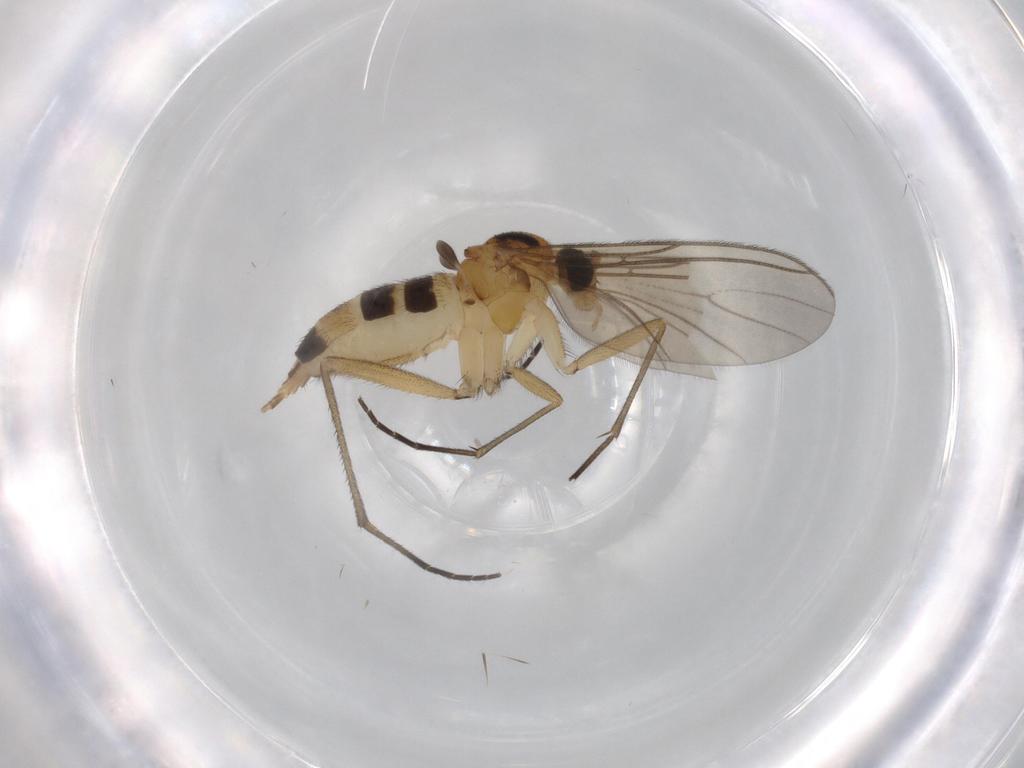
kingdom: Animalia
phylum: Arthropoda
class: Insecta
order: Diptera
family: Sciaridae
